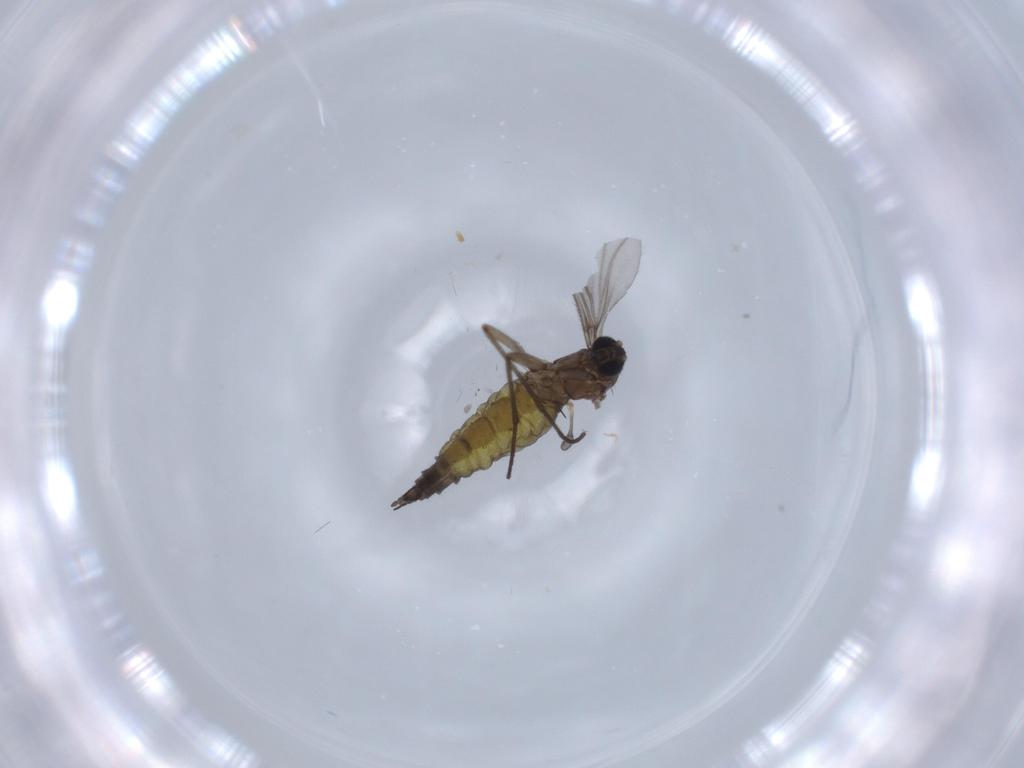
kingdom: Animalia
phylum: Arthropoda
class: Insecta
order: Diptera
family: Sciaridae
